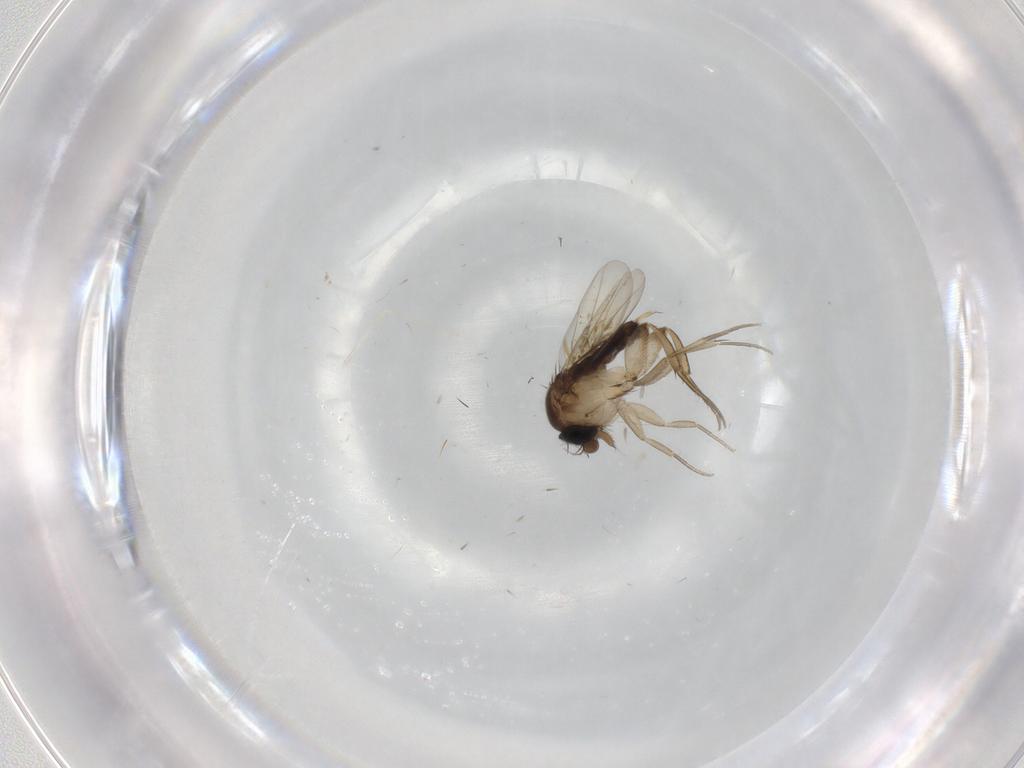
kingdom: Animalia
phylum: Arthropoda
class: Insecta
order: Diptera
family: Phoridae
